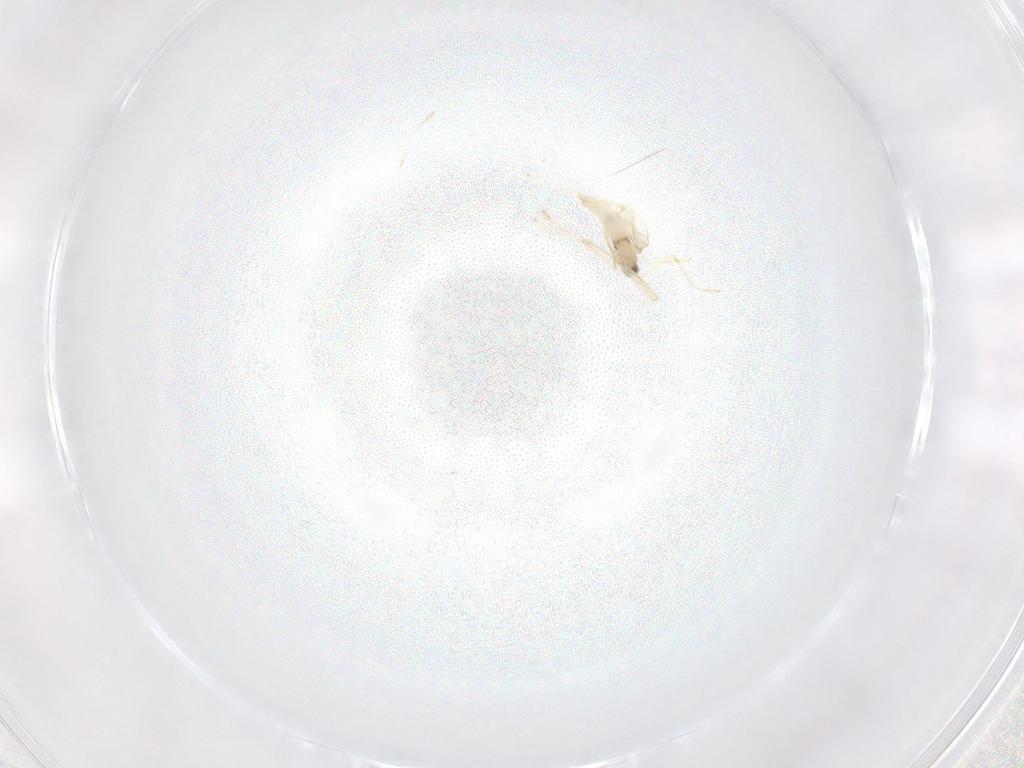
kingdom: Animalia
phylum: Arthropoda
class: Insecta
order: Diptera
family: Cecidomyiidae
